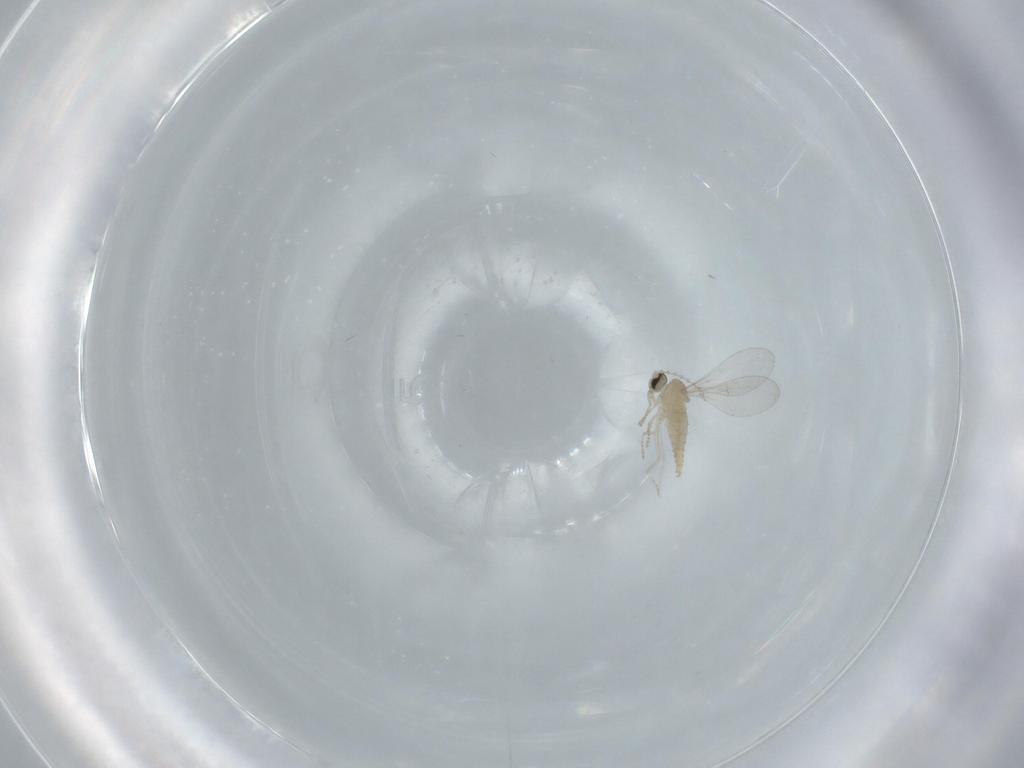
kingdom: Animalia
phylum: Arthropoda
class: Insecta
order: Diptera
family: Cecidomyiidae
